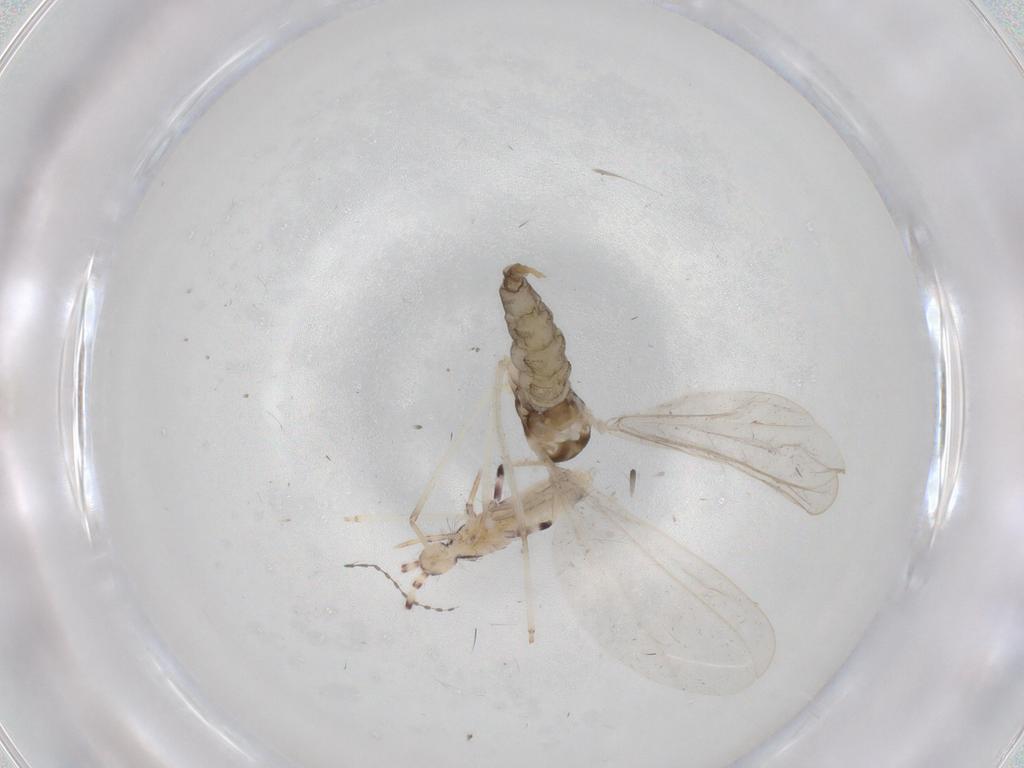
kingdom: Animalia
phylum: Arthropoda
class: Insecta
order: Diptera
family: Cecidomyiidae
